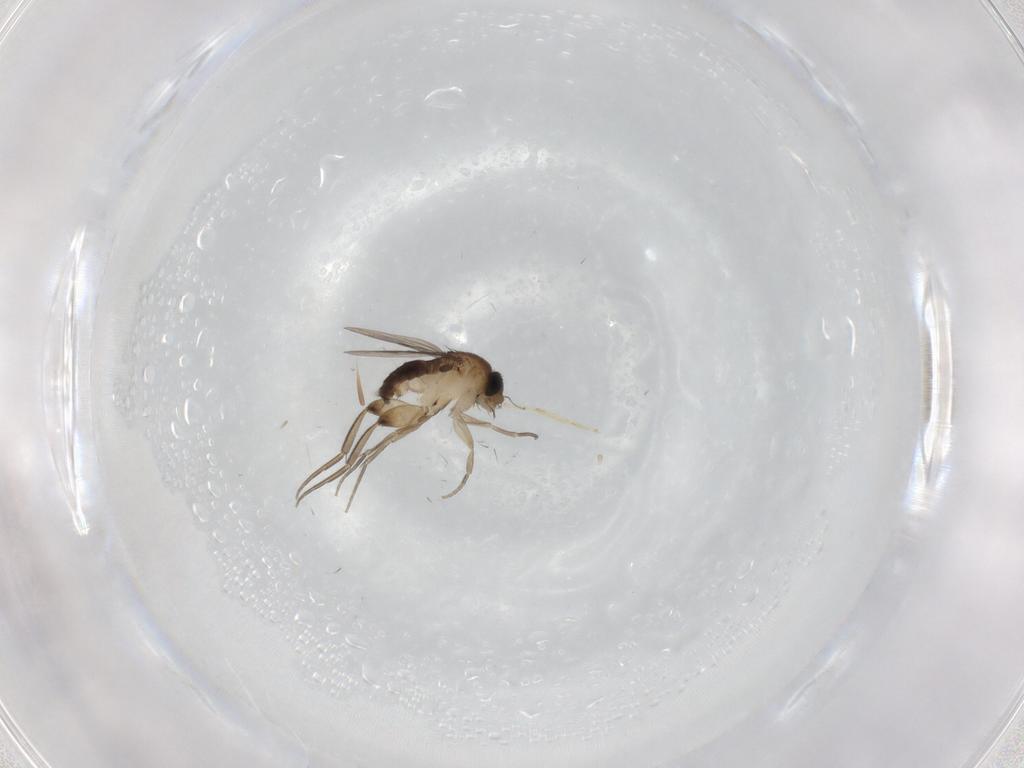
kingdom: Animalia
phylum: Arthropoda
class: Insecta
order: Diptera
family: Phoridae
